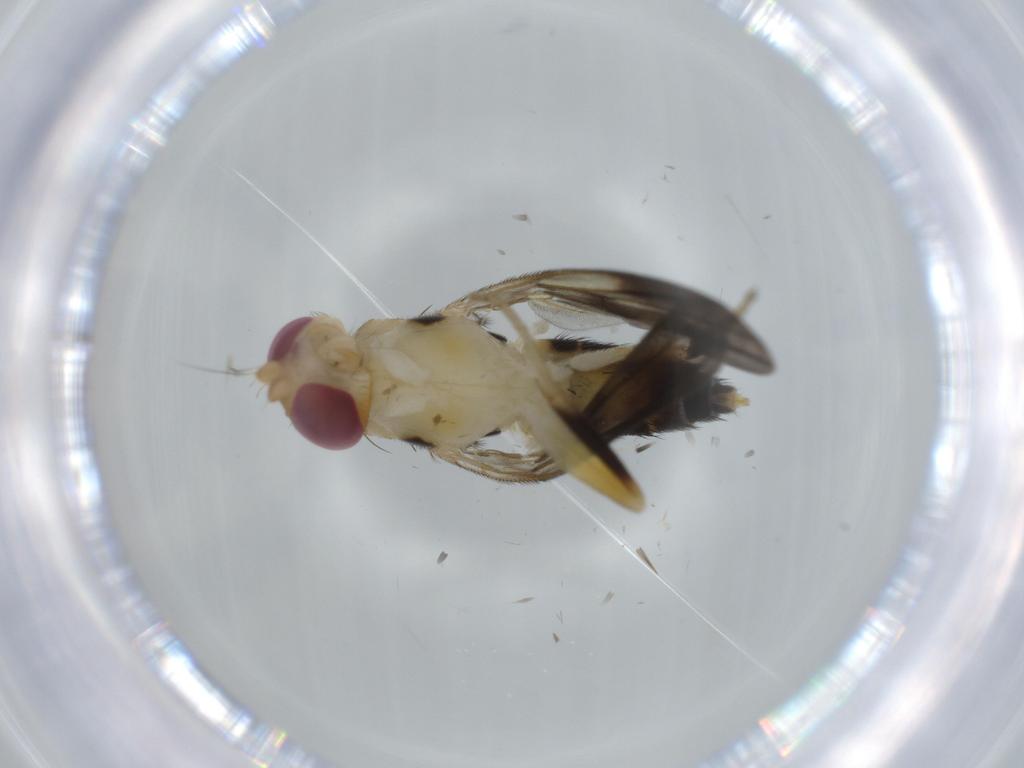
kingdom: Animalia
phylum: Arthropoda
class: Insecta
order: Diptera
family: Clusiidae
